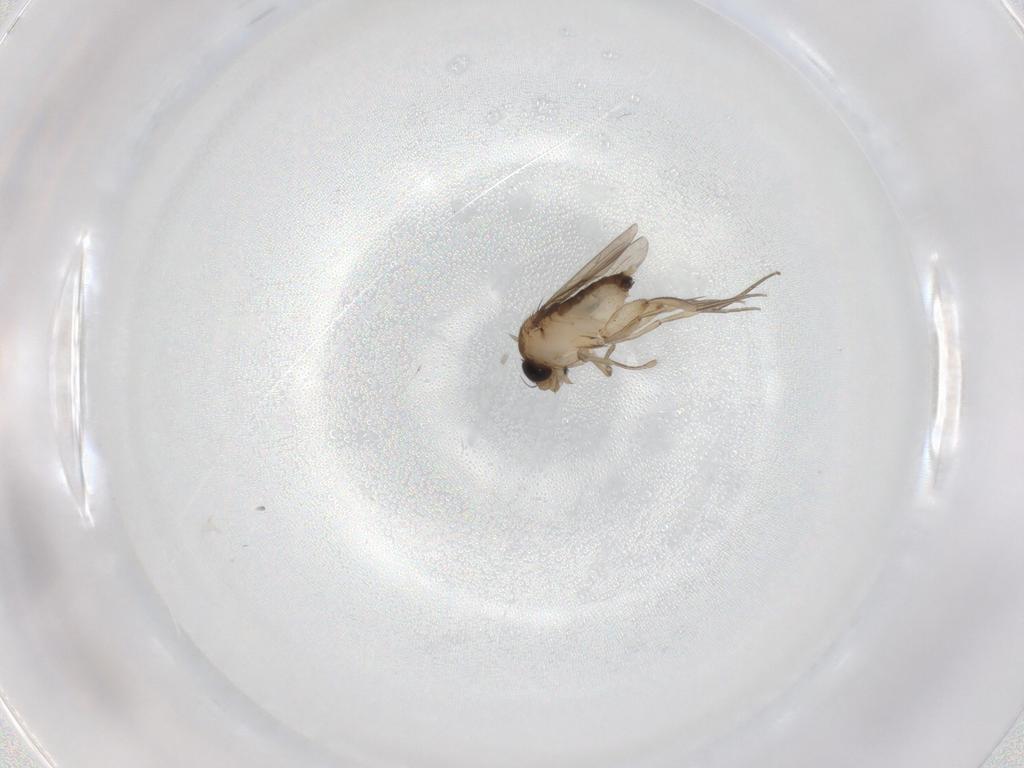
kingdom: Animalia
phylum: Arthropoda
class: Insecta
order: Diptera
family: Phoridae
